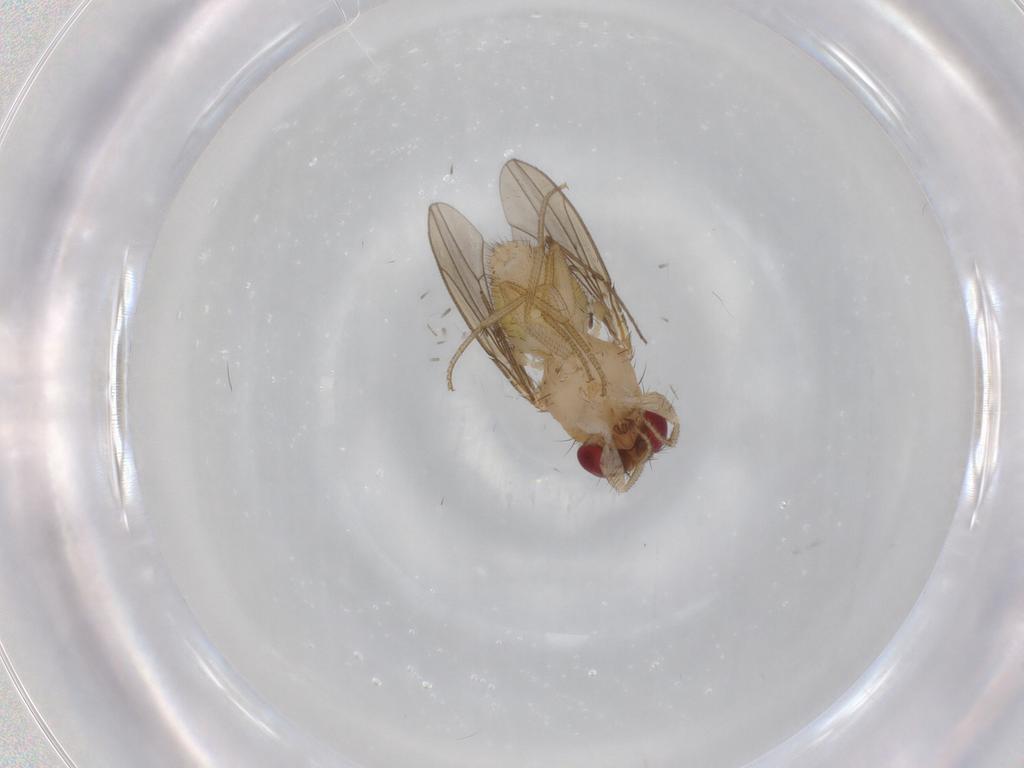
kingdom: Animalia
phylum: Arthropoda
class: Insecta
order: Diptera
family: Drosophilidae
